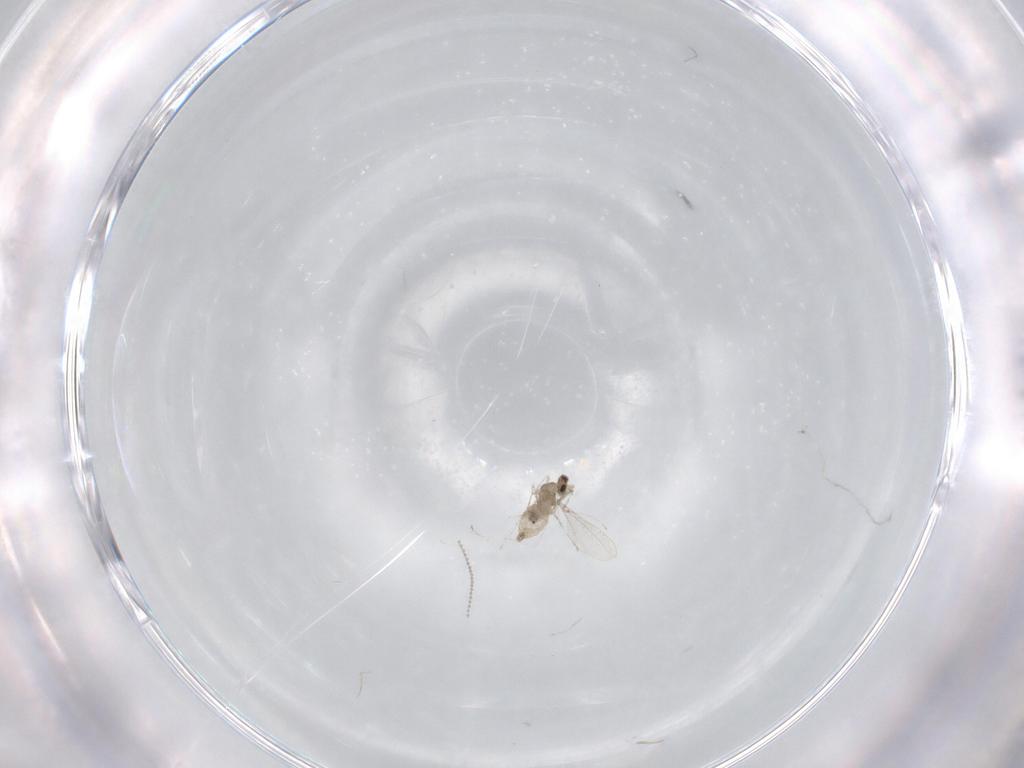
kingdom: Animalia
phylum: Arthropoda
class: Insecta
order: Diptera
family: Cecidomyiidae
